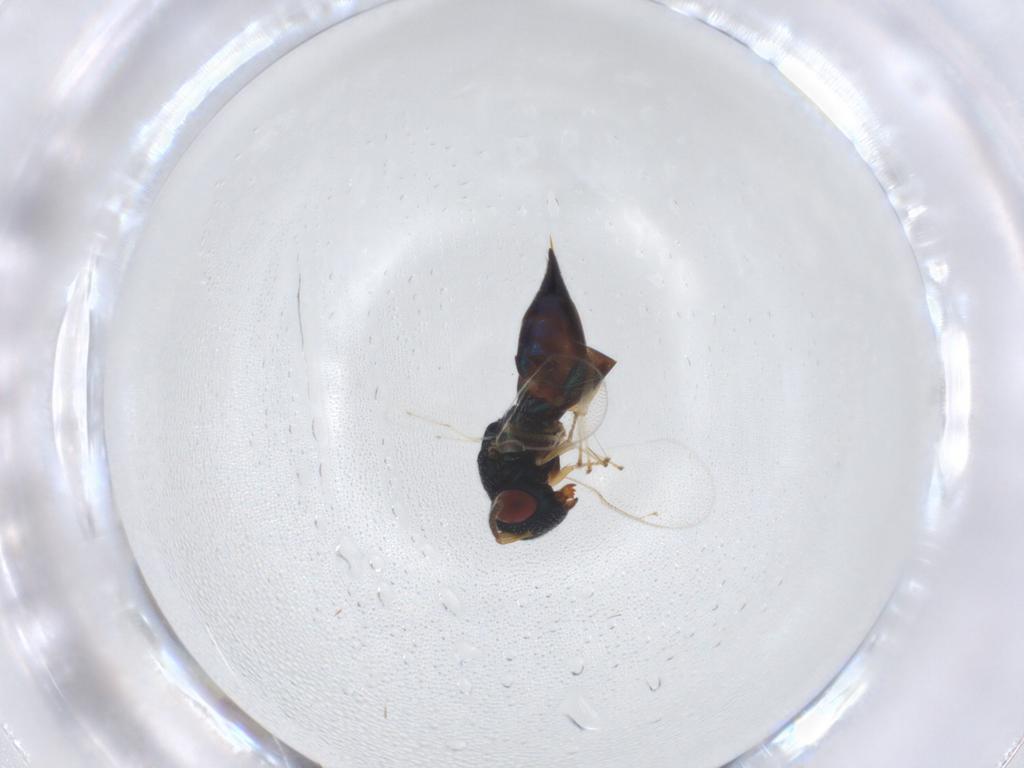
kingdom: Animalia
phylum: Arthropoda
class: Insecta
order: Hymenoptera
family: Pteromalidae
